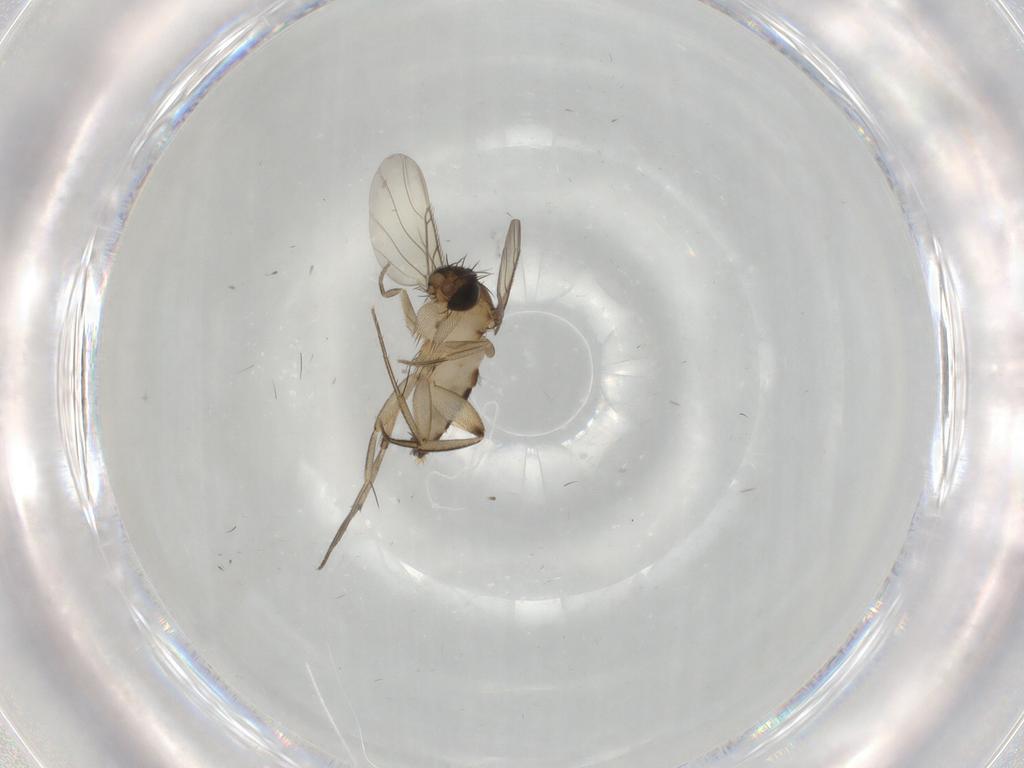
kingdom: Animalia
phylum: Arthropoda
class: Insecta
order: Diptera
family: Phoridae
